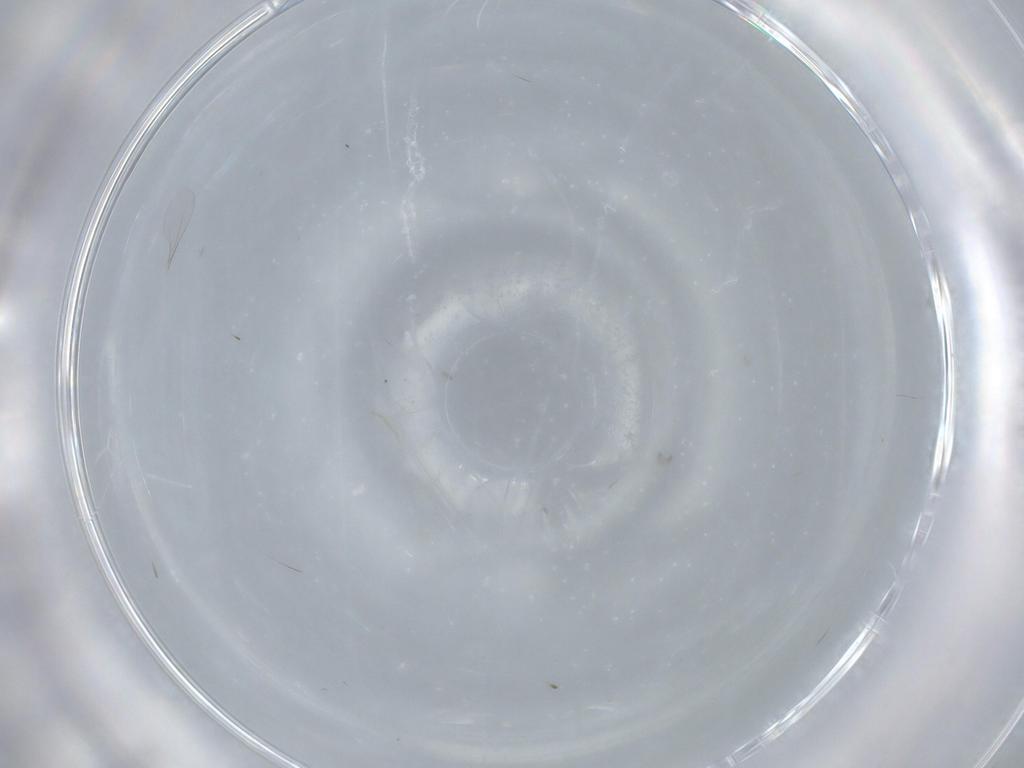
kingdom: Animalia
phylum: Arthropoda
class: Insecta
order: Diptera
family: Cecidomyiidae
